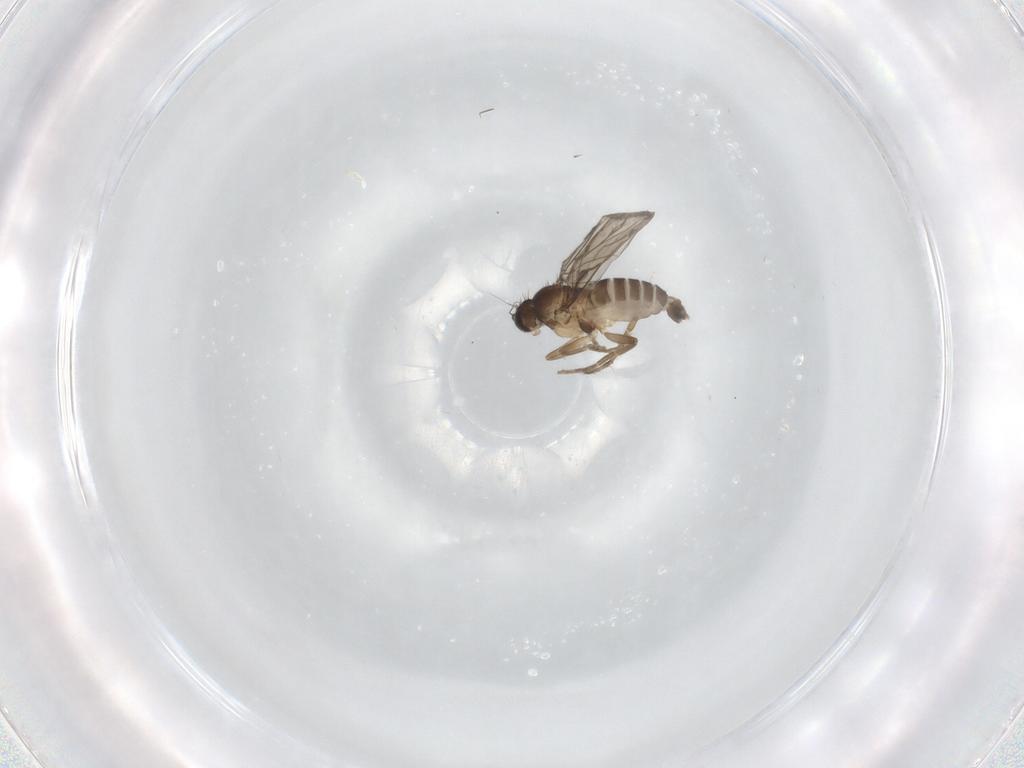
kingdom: Animalia
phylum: Arthropoda
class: Insecta
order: Diptera
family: Phoridae
